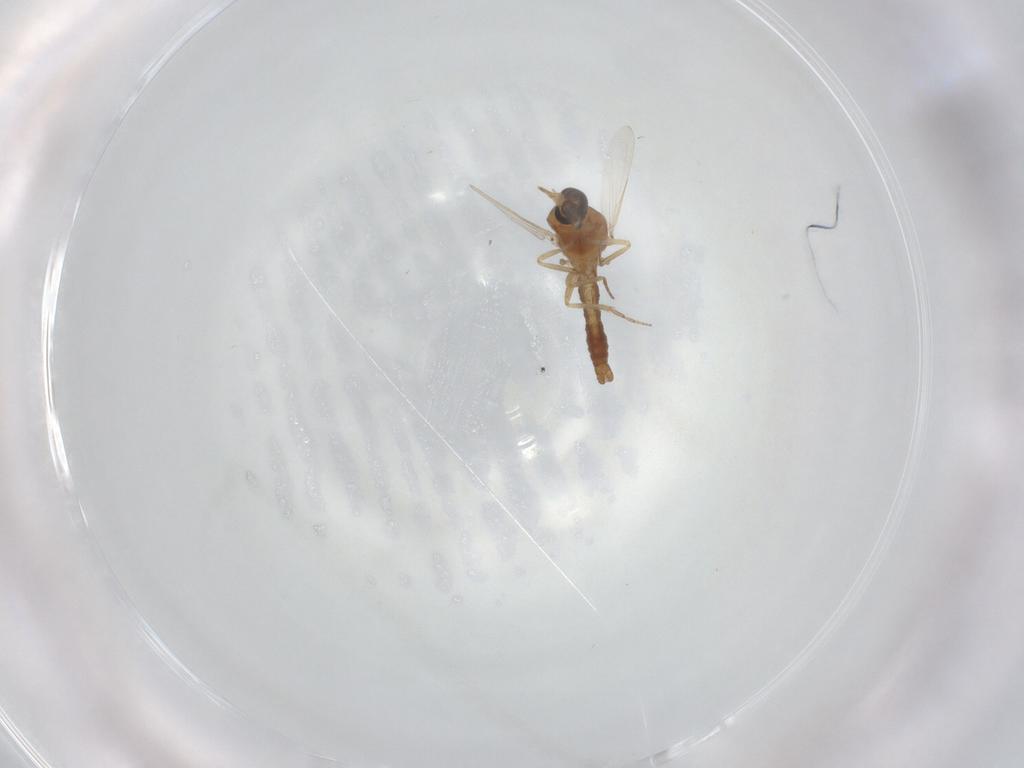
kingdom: Animalia
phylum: Arthropoda
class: Insecta
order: Diptera
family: Ceratopogonidae
